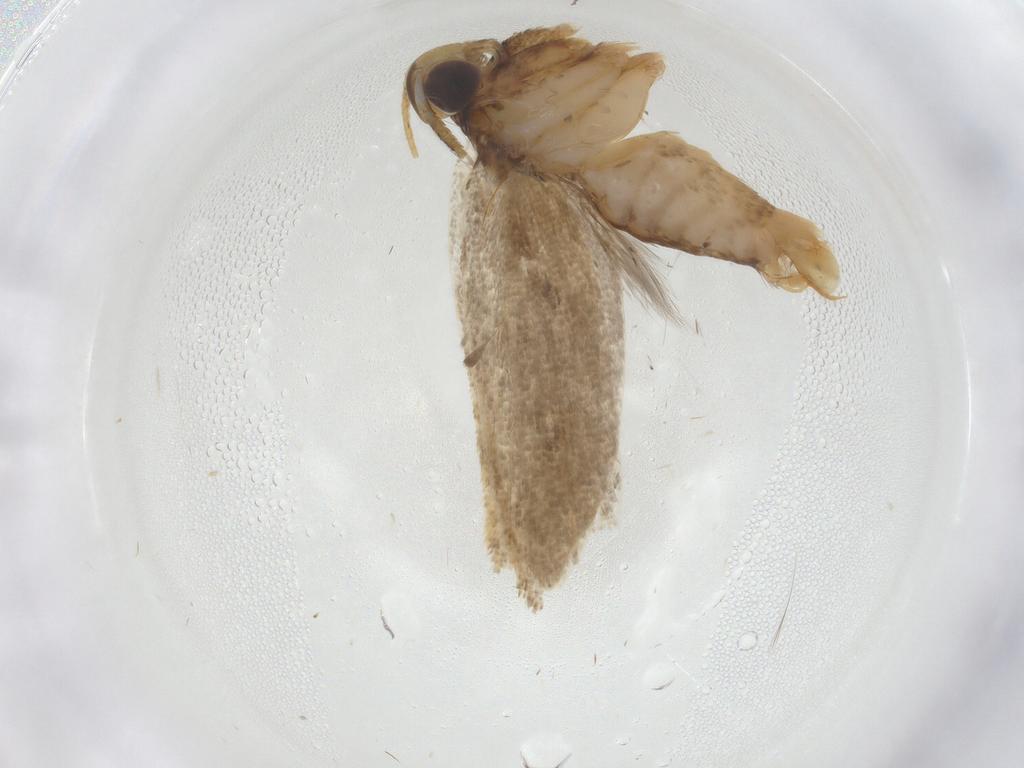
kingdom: Animalia
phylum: Arthropoda
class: Insecta
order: Lepidoptera
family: Oecophoridae
